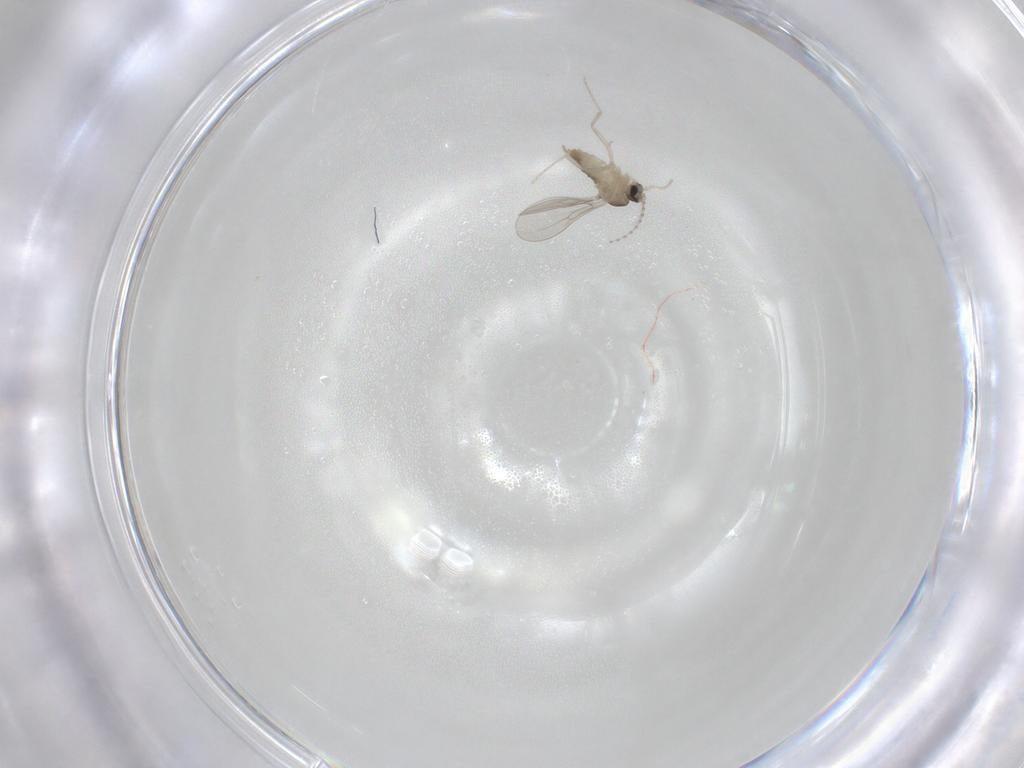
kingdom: Animalia
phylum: Arthropoda
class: Insecta
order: Diptera
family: Cecidomyiidae
